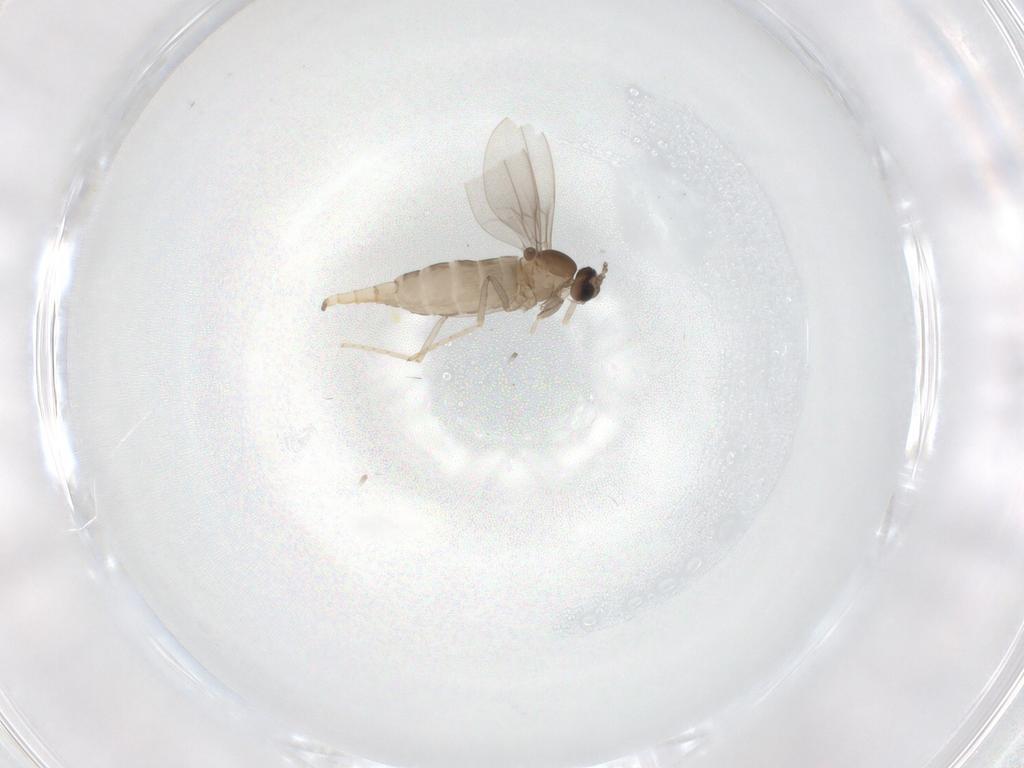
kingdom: Animalia
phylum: Arthropoda
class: Insecta
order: Diptera
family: Cecidomyiidae
